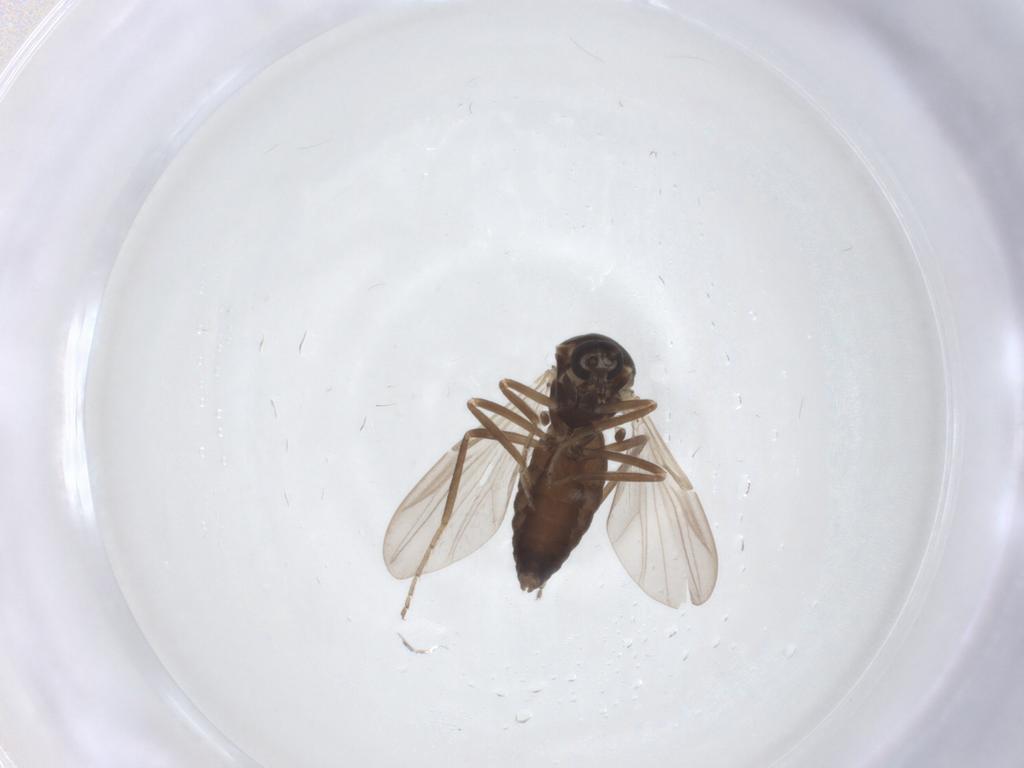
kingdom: Animalia
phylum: Arthropoda
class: Insecta
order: Diptera
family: Ceratopogonidae
